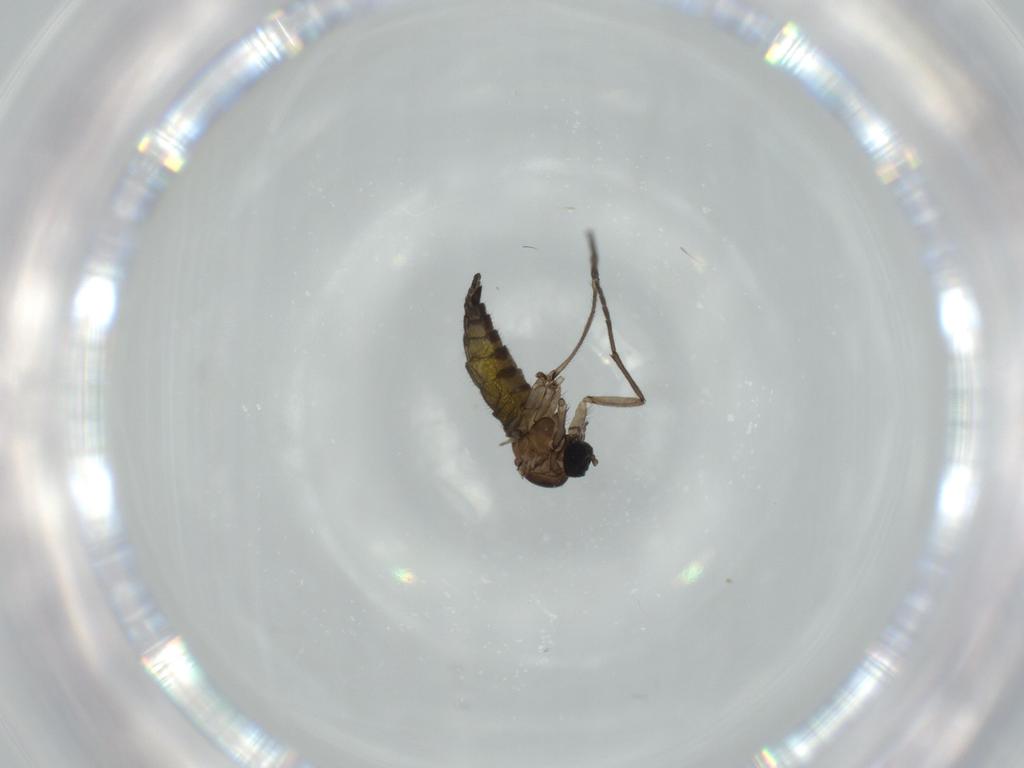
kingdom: Animalia
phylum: Arthropoda
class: Insecta
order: Diptera
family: Sciaridae
